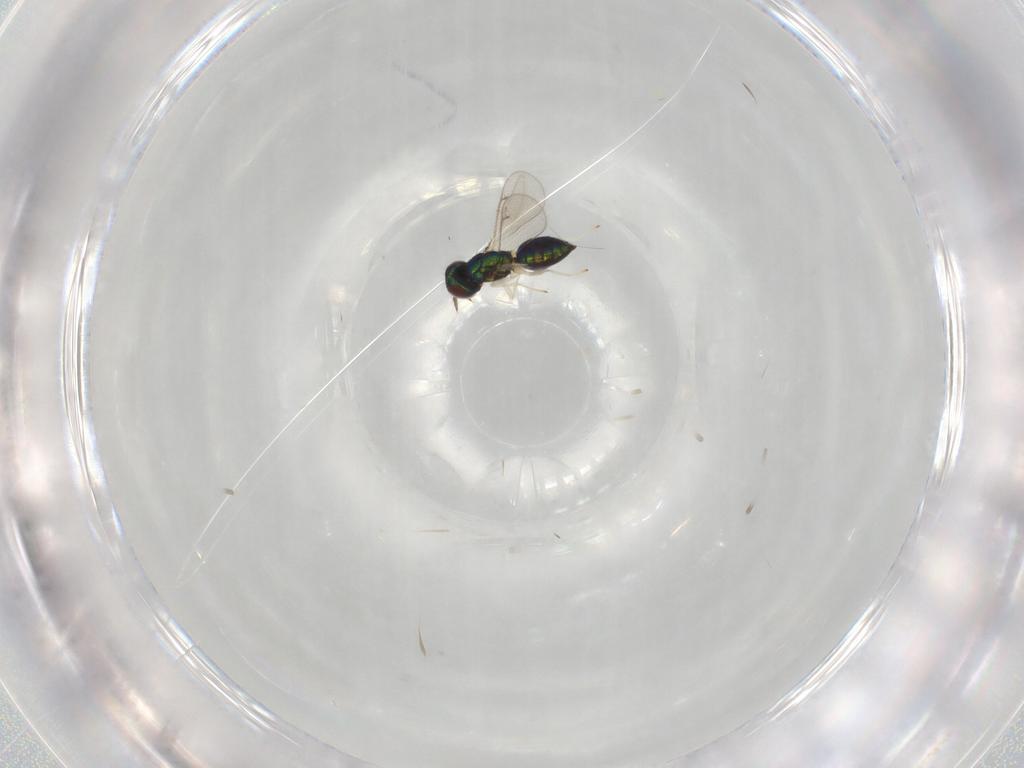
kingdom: Animalia
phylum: Arthropoda
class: Insecta
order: Hymenoptera
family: Eulophidae
